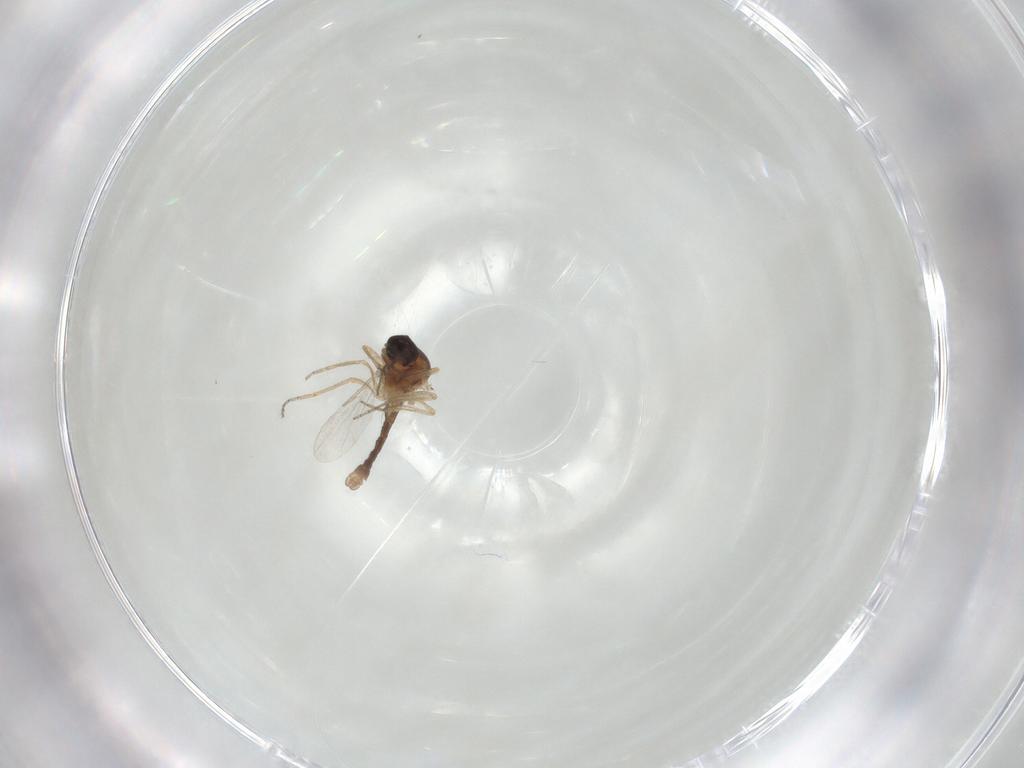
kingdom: Animalia
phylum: Arthropoda
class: Insecta
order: Diptera
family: Ceratopogonidae
